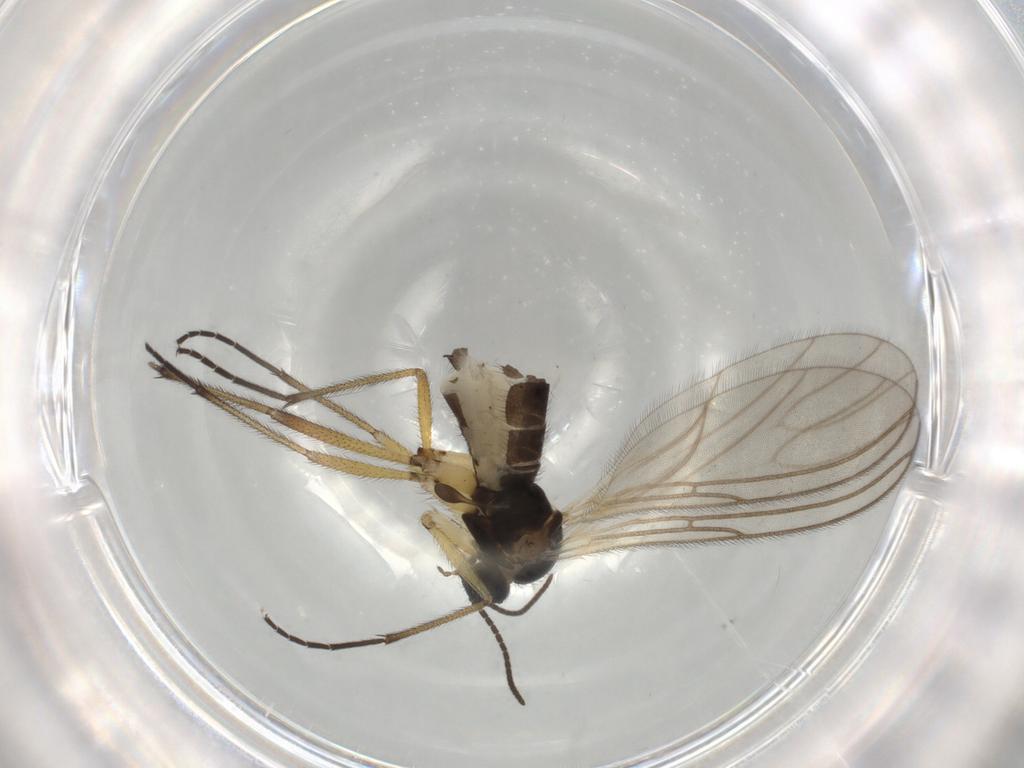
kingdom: Animalia
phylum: Arthropoda
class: Insecta
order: Diptera
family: Sciaridae
